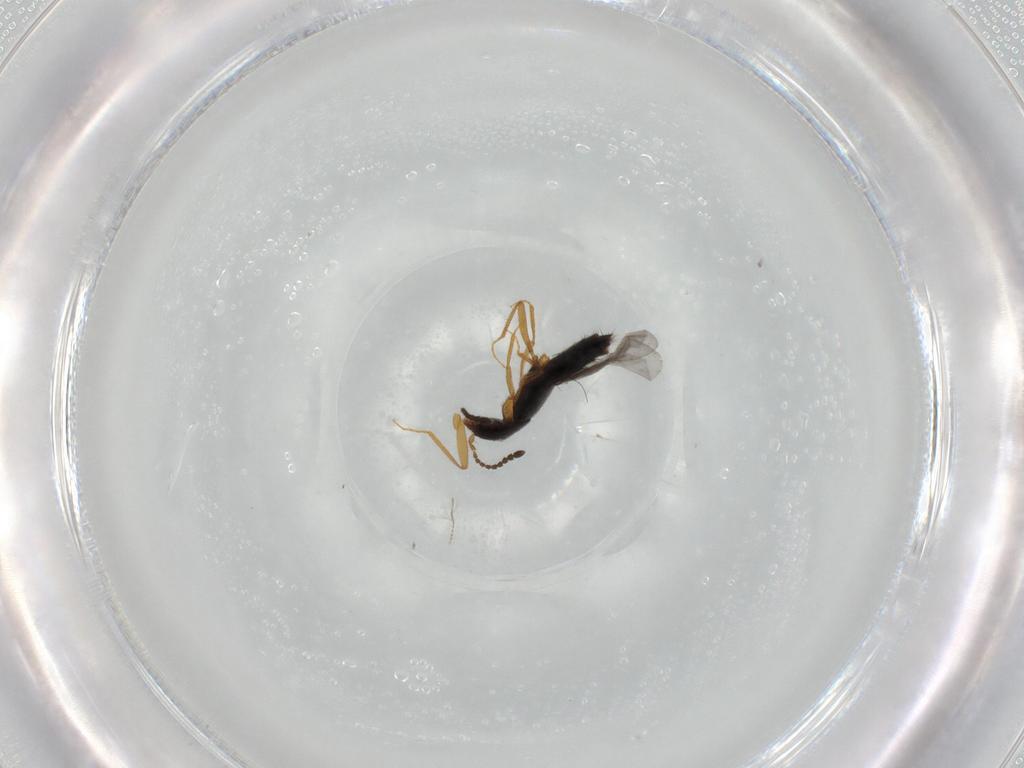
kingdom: Animalia
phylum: Arthropoda
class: Insecta
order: Coleoptera
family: Staphylinidae
